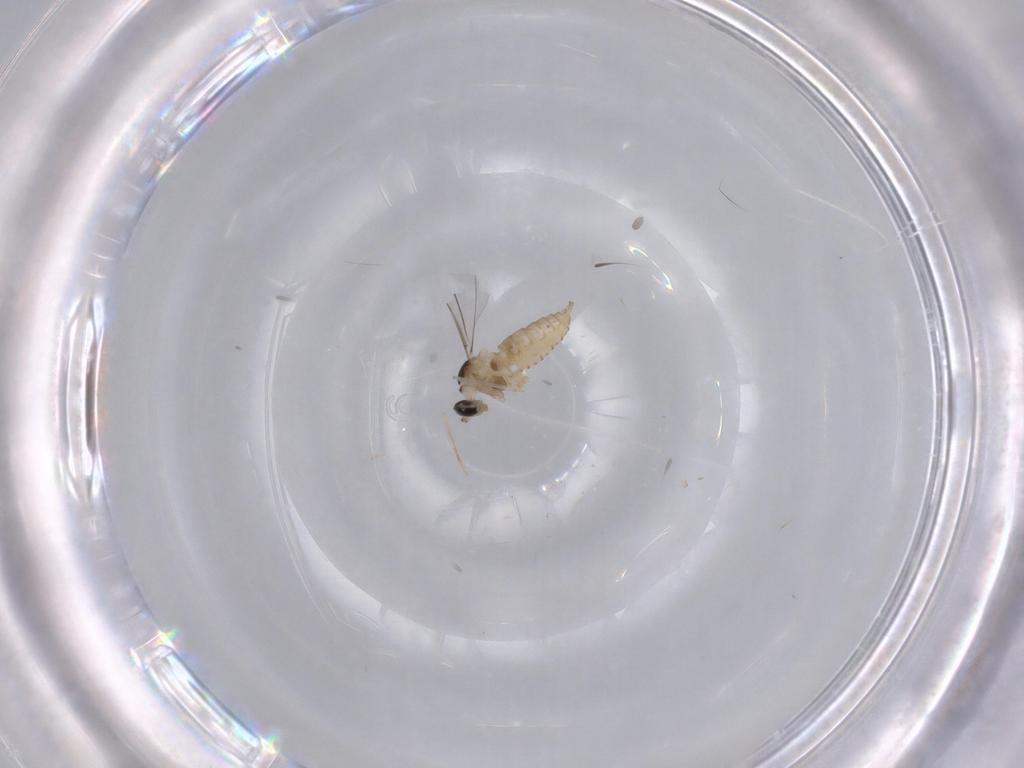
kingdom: Animalia
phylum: Arthropoda
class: Insecta
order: Diptera
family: Cecidomyiidae
